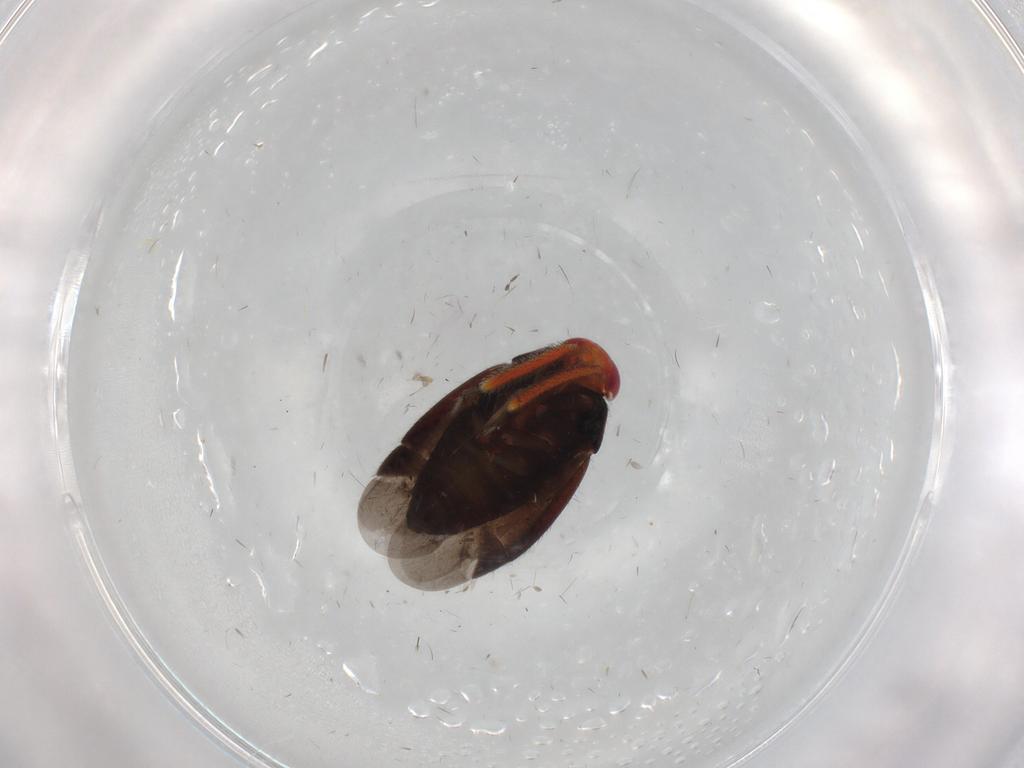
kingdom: Animalia
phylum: Arthropoda
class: Insecta
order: Hemiptera
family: Miridae
